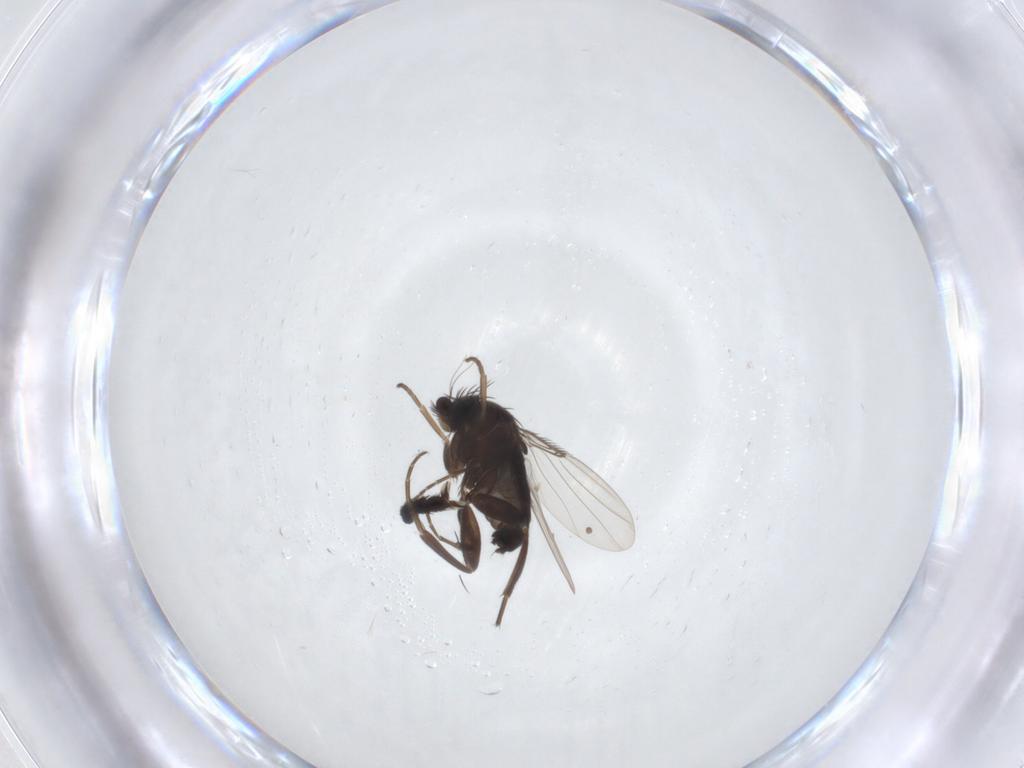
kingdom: Animalia
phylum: Arthropoda
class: Insecta
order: Diptera
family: Tachinidae
